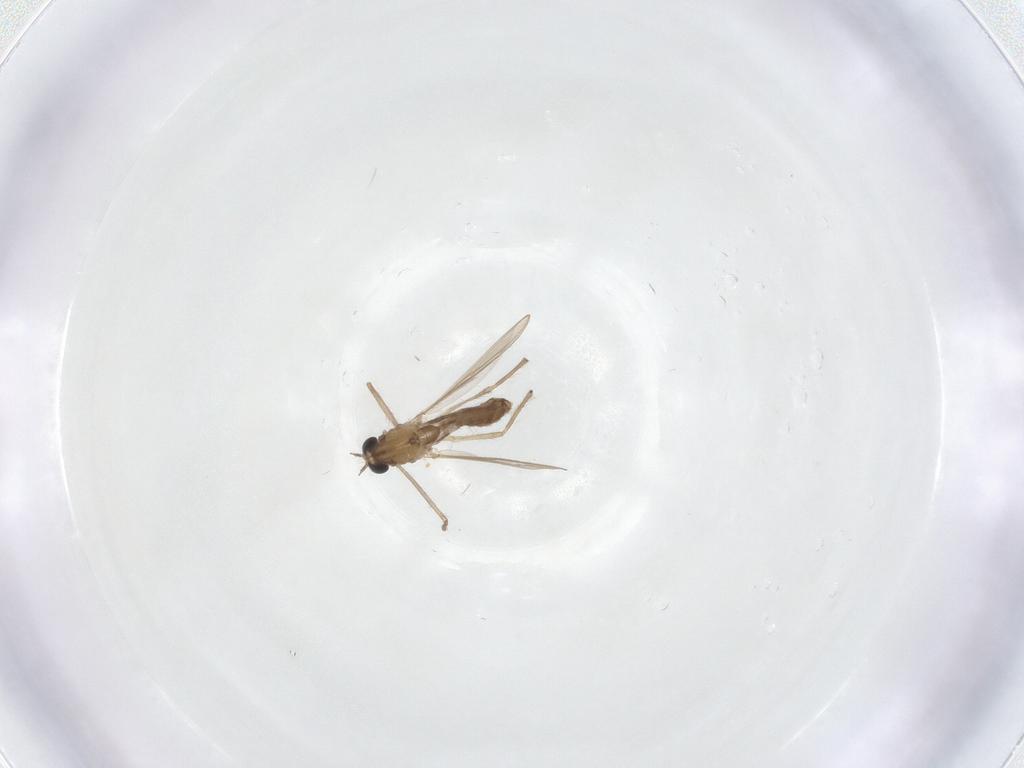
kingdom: Animalia
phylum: Arthropoda
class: Insecta
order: Diptera
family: Chironomidae
